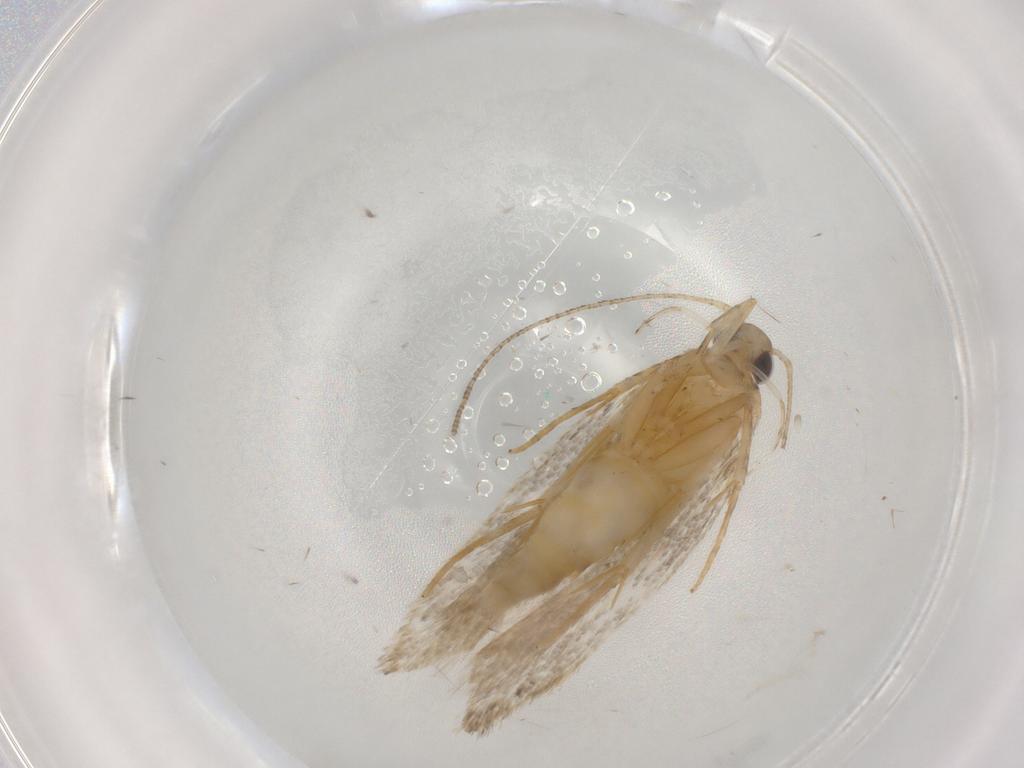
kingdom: Animalia
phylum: Arthropoda
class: Insecta
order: Lepidoptera
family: Autostichidae
